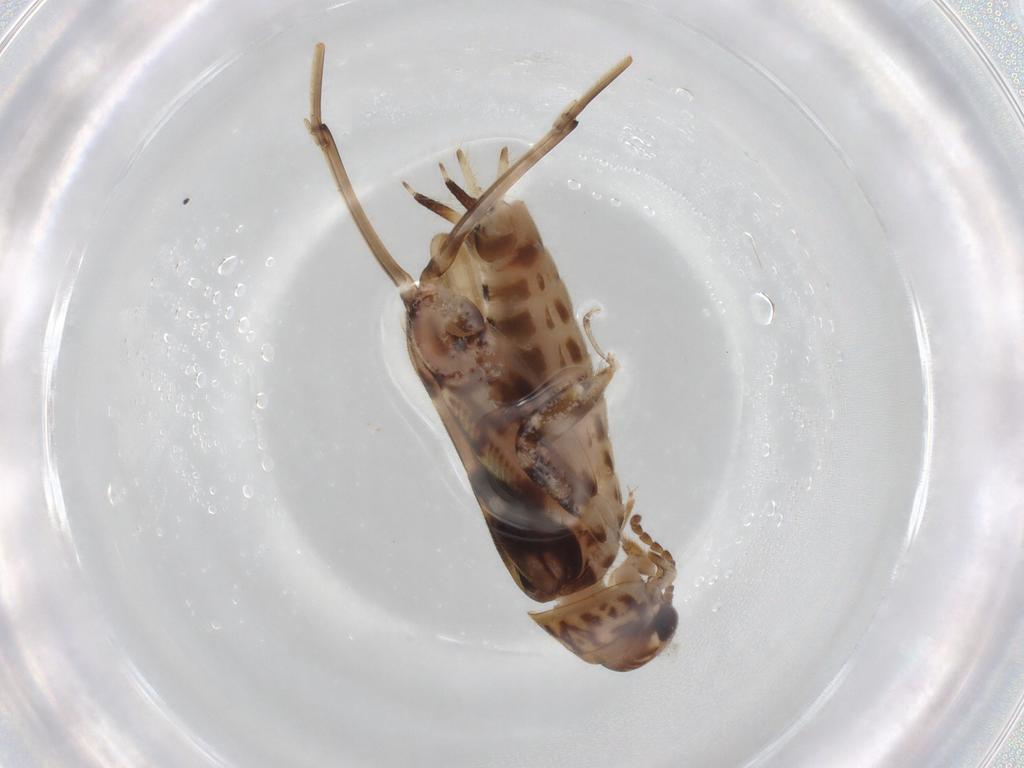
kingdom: Animalia
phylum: Arthropoda
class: Insecta
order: Orthoptera
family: Tridactylidae
